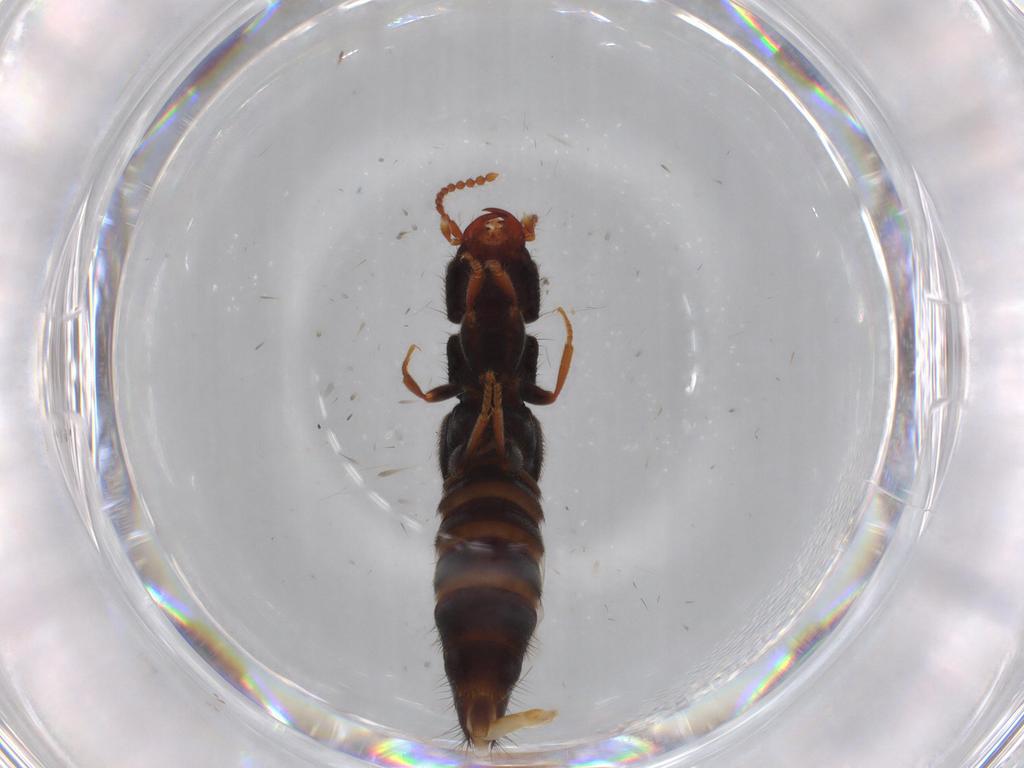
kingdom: Animalia
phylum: Arthropoda
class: Insecta
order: Coleoptera
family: Staphylinidae
